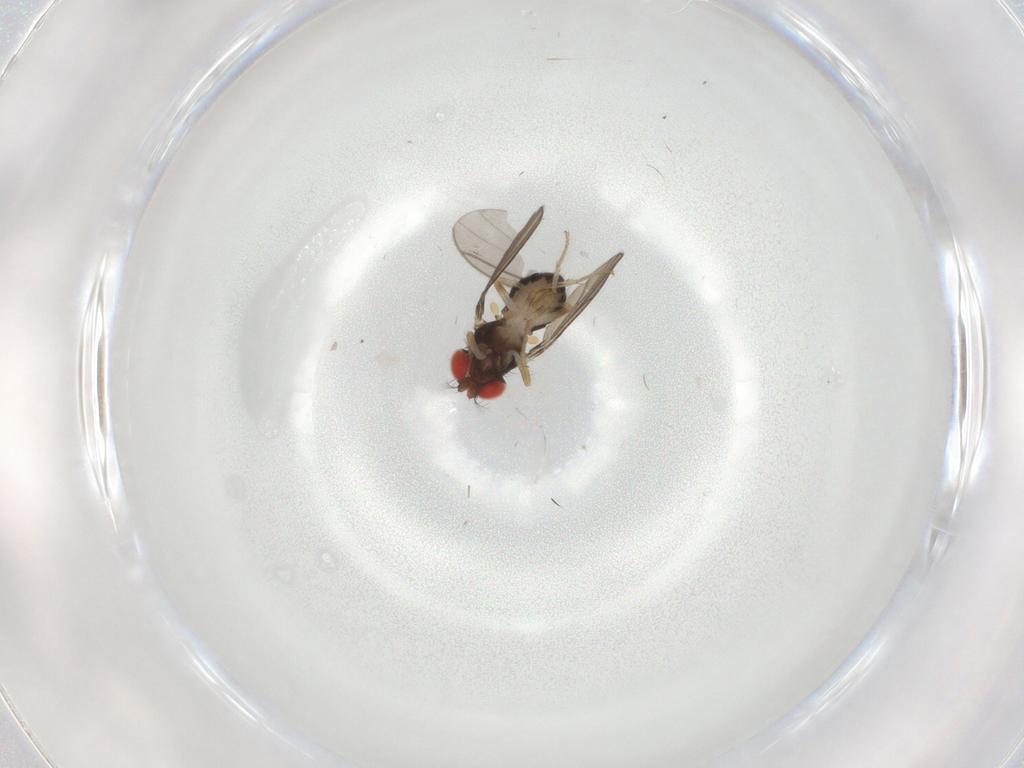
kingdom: Animalia
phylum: Arthropoda
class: Insecta
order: Diptera
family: Drosophilidae
